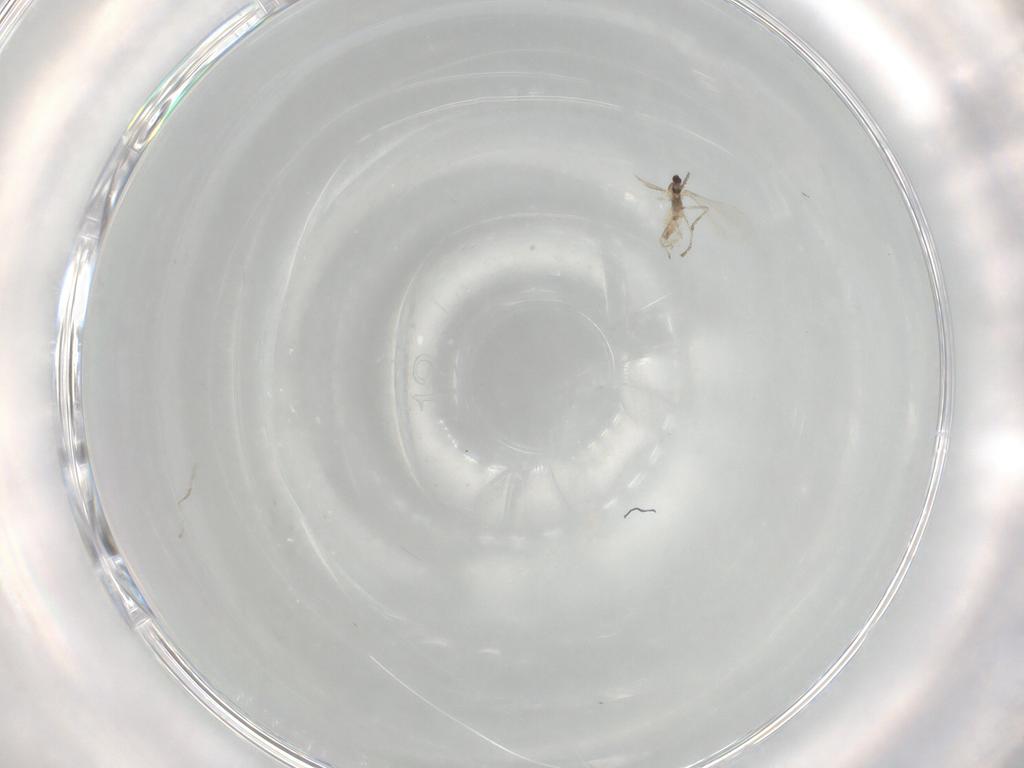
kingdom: Animalia
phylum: Arthropoda
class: Insecta
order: Diptera
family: Cecidomyiidae
